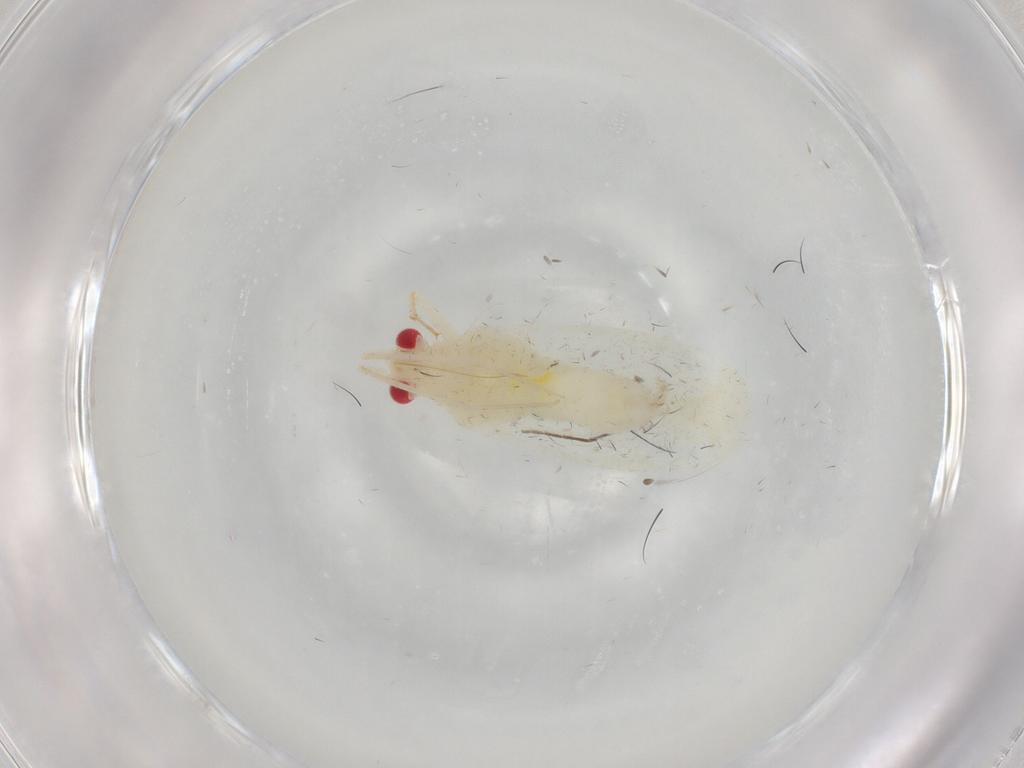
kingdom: Animalia
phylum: Arthropoda
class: Insecta
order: Hemiptera
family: Miridae
